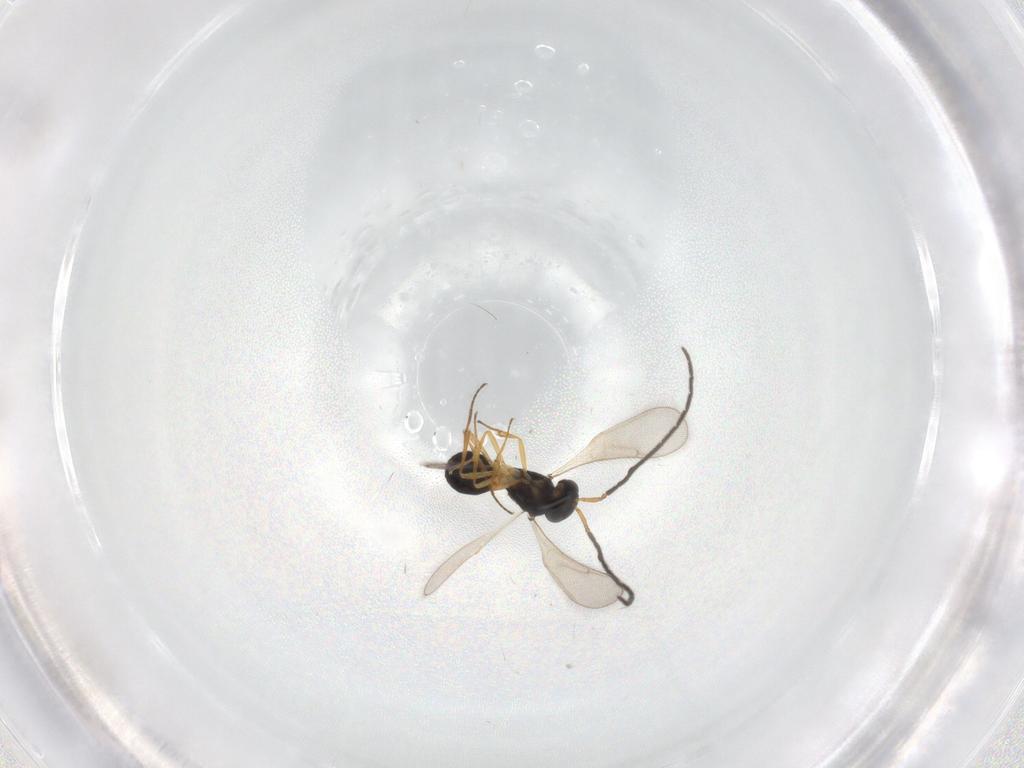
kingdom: Animalia
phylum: Arthropoda
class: Insecta
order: Hymenoptera
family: Scelionidae
